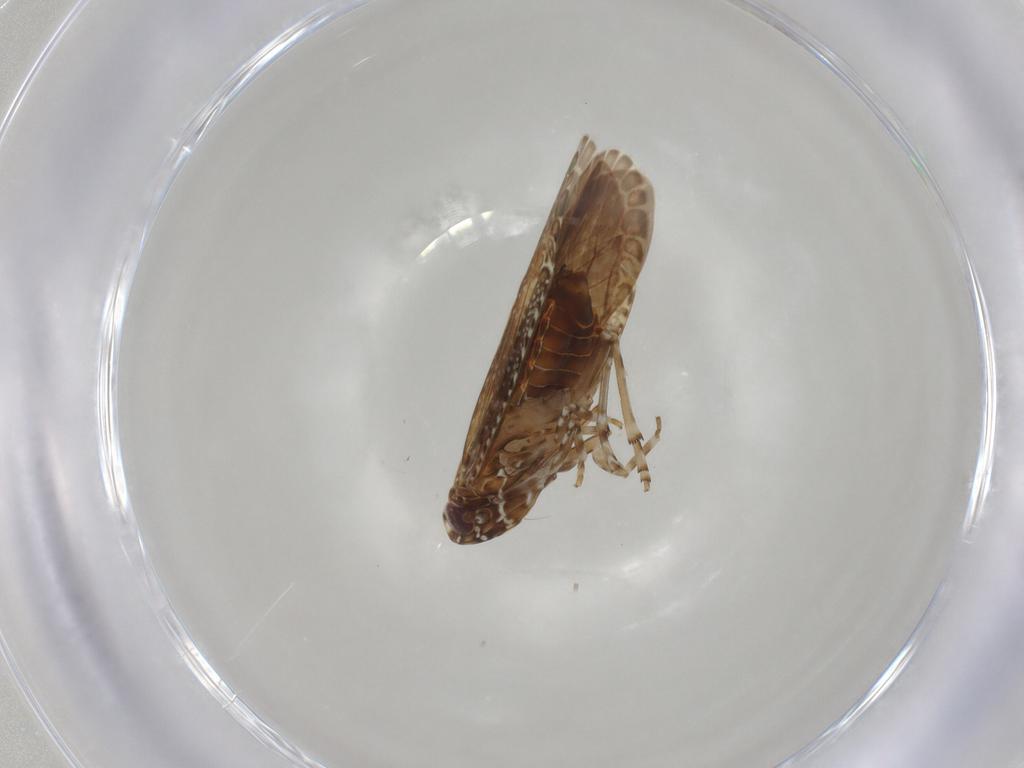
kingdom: Animalia
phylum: Arthropoda
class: Insecta
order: Hemiptera
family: Achilidae
